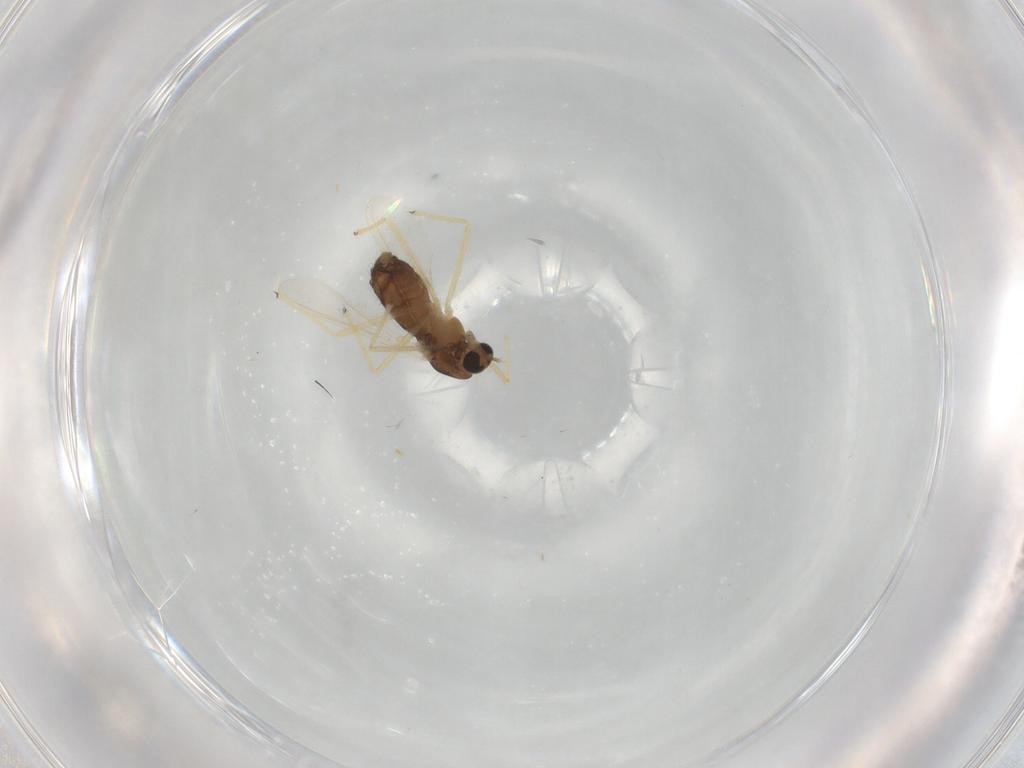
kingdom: Animalia
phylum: Arthropoda
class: Insecta
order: Diptera
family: Chironomidae
